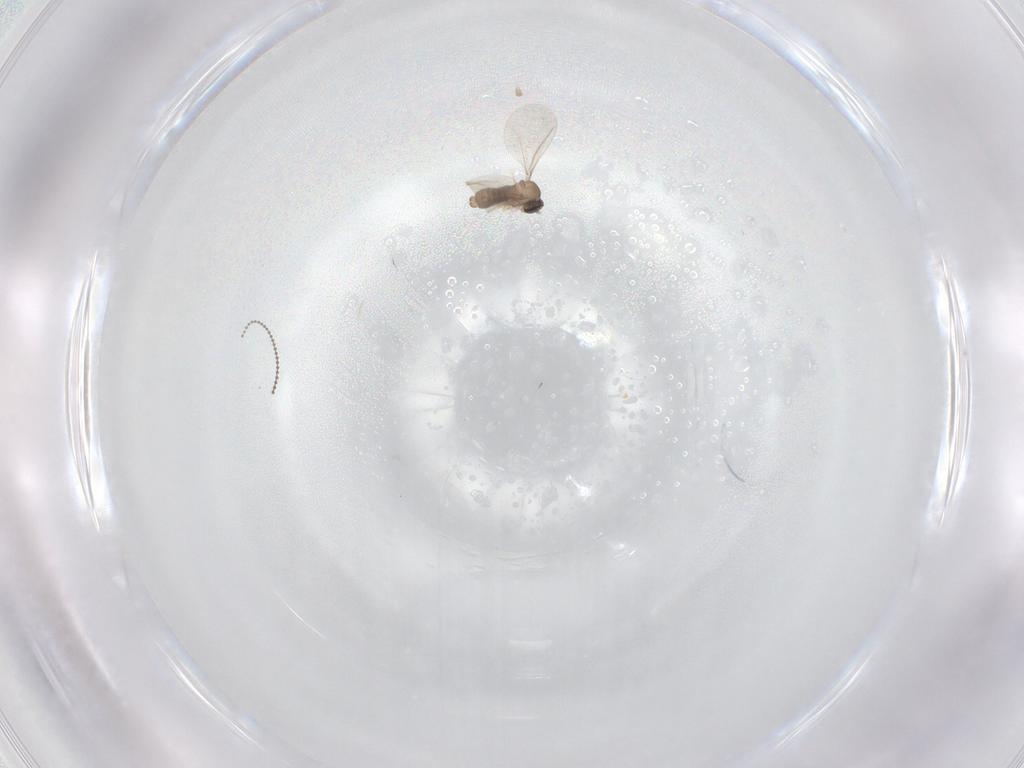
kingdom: Animalia
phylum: Arthropoda
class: Insecta
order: Diptera
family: Cecidomyiidae
